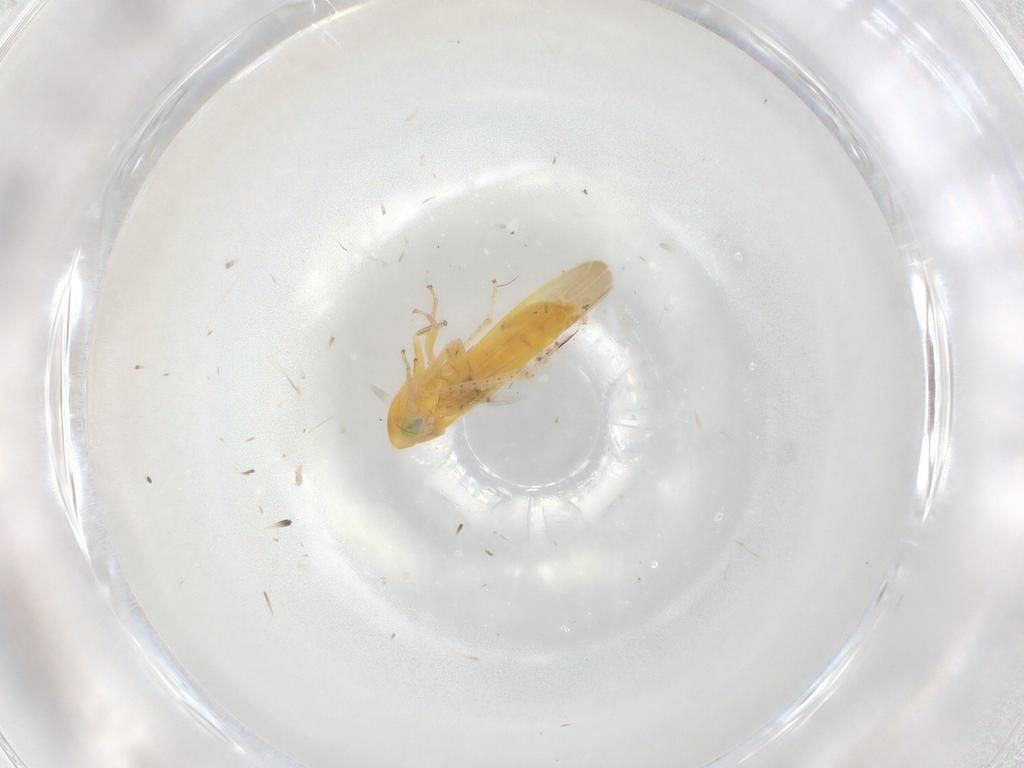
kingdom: Animalia
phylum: Arthropoda
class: Insecta
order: Hemiptera
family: Cicadellidae
